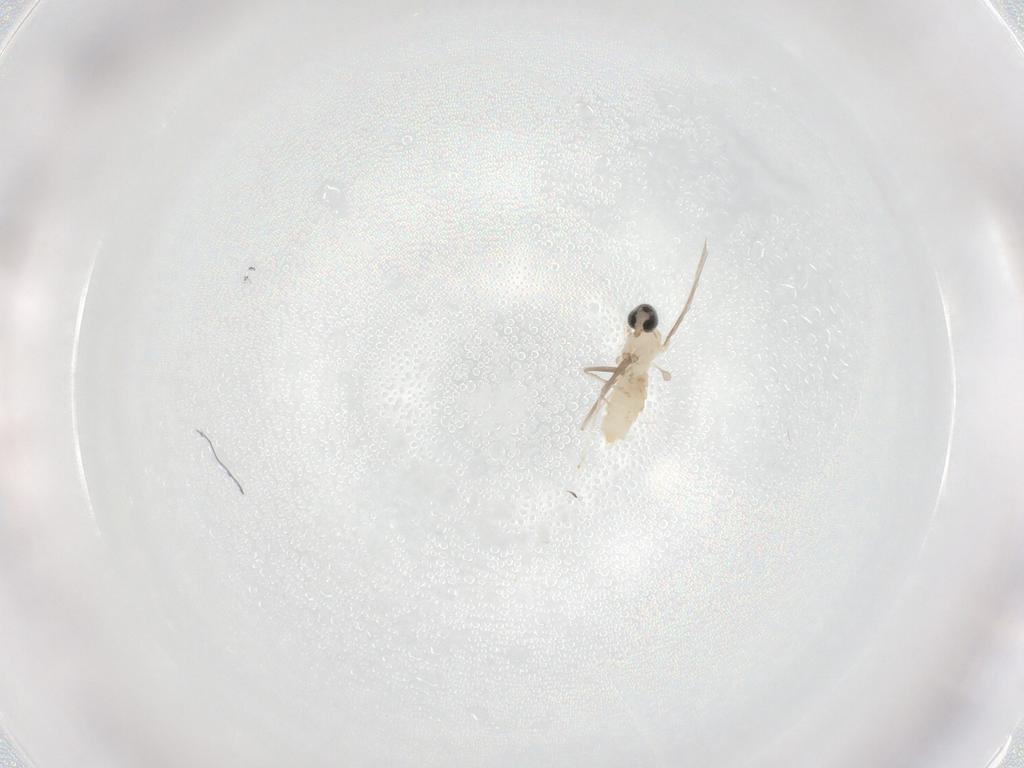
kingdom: Animalia
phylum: Arthropoda
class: Insecta
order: Diptera
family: Cecidomyiidae
